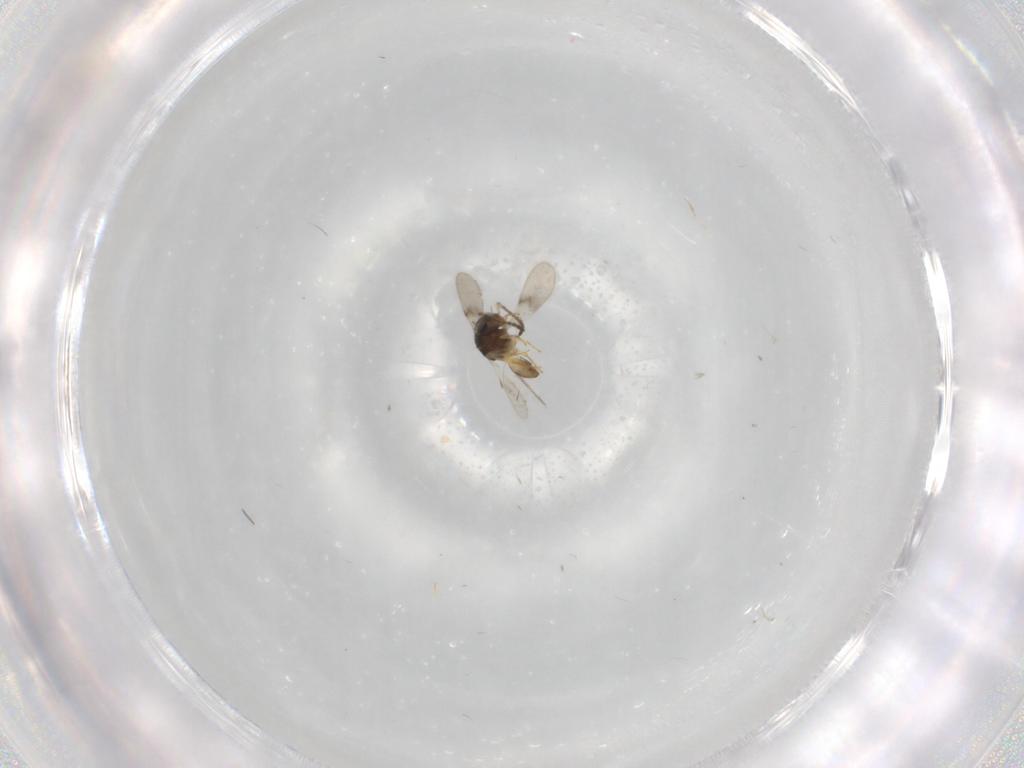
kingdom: Animalia
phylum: Arthropoda
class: Insecta
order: Hymenoptera
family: Scelionidae
